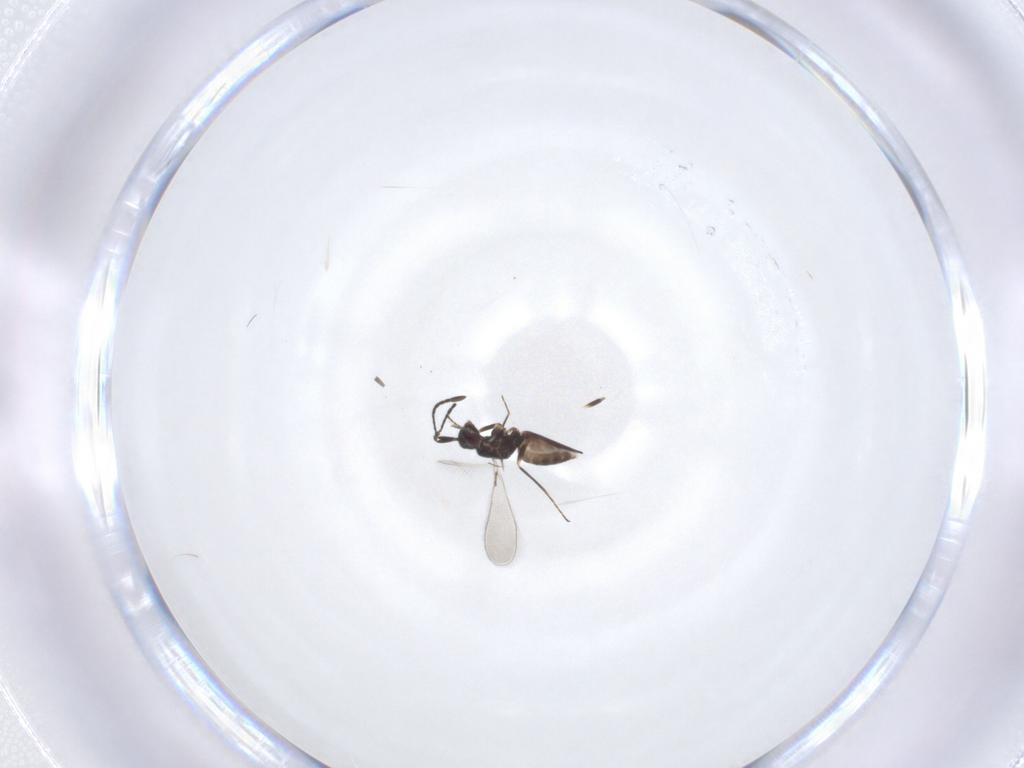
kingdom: Animalia
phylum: Arthropoda
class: Insecta
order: Hymenoptera
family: Mymaridae
